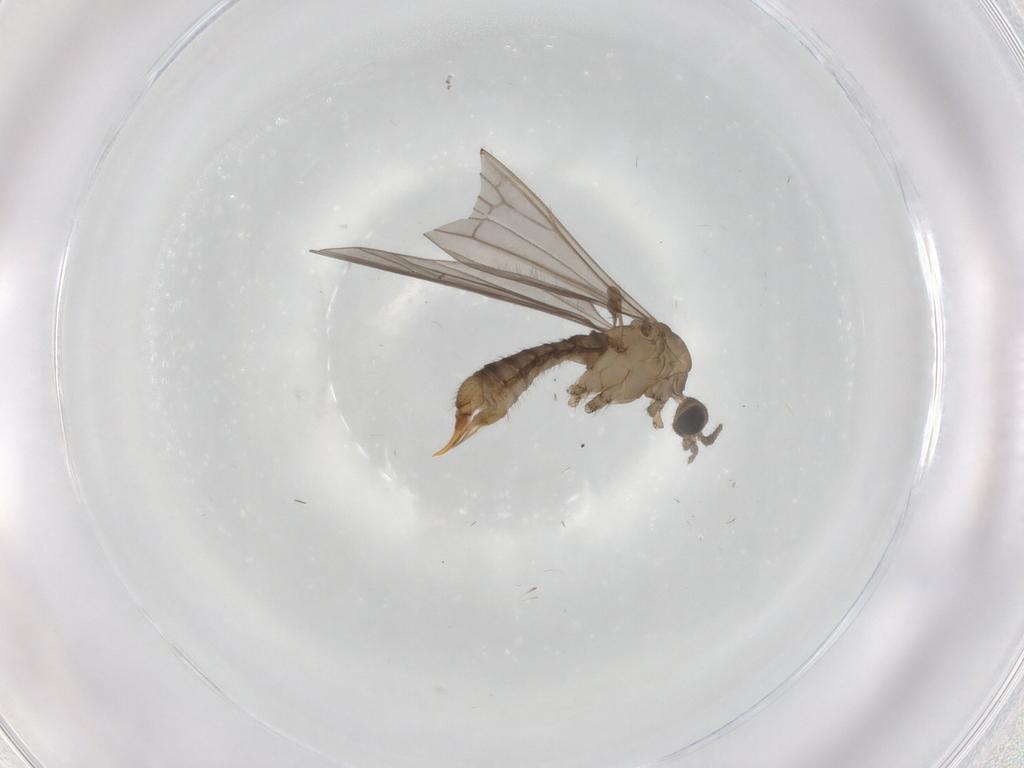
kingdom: Animalia
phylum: Arthropoda
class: Insecta
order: Diptera
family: Limoniidae
